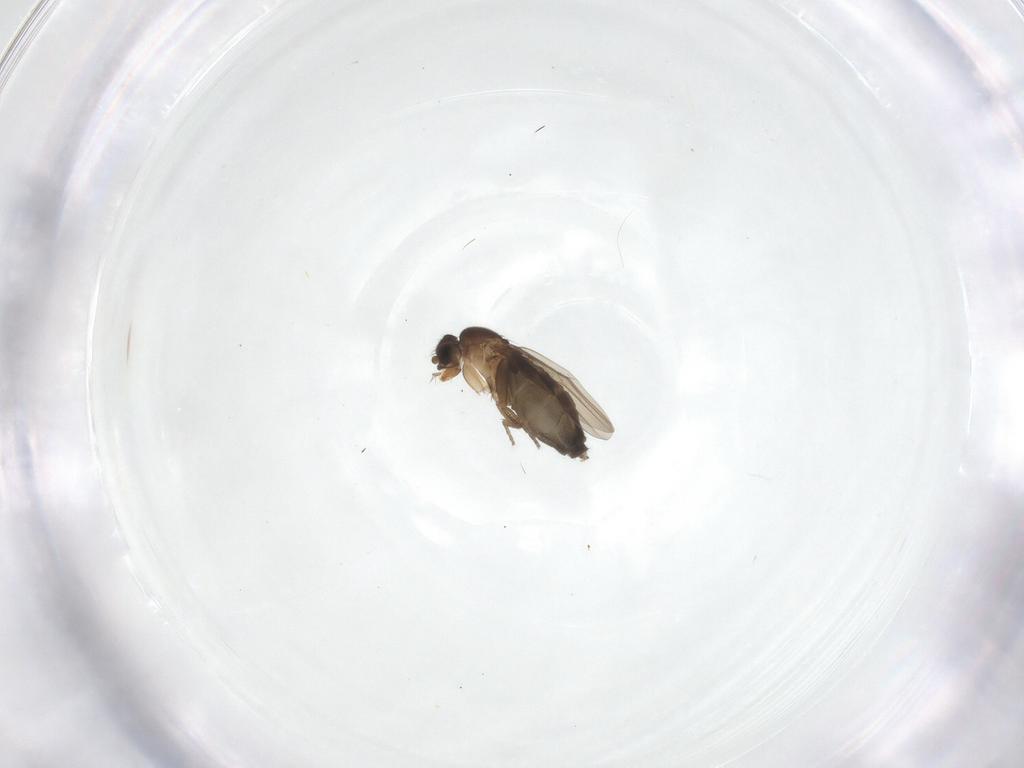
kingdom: Animalia
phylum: Arthropoda
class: Insecta
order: Diptera
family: Phoridae
